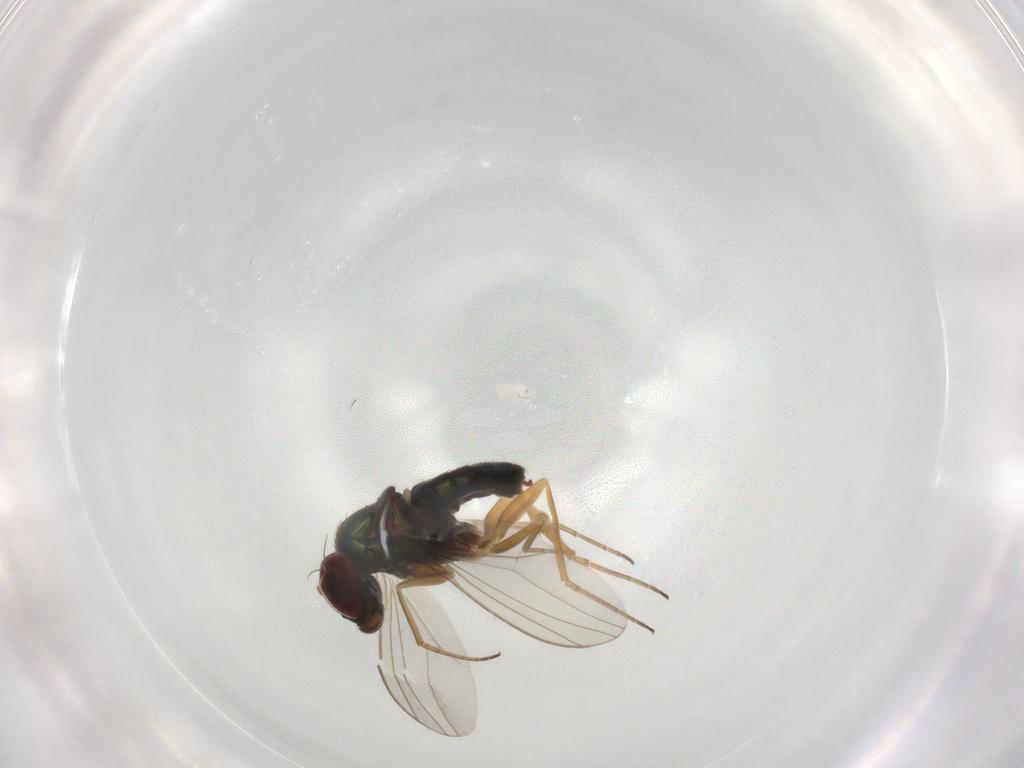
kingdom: Animalia
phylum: Arthropoda
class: Insecta
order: Diptera
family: Dolichopodidae
